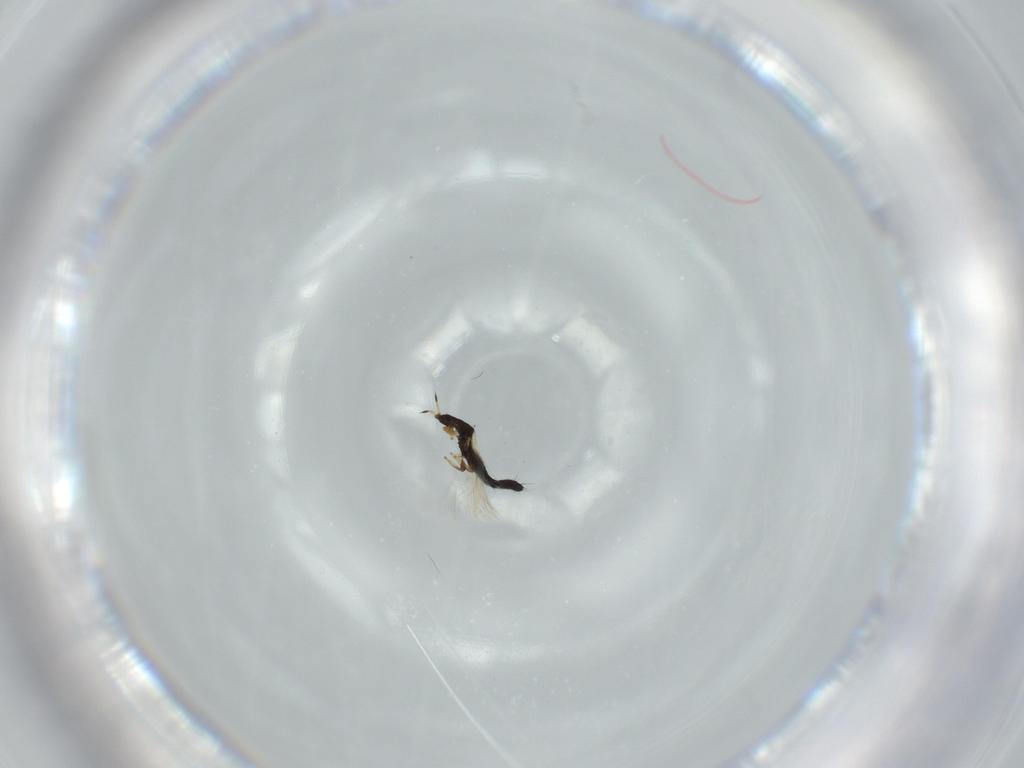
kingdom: Animalia
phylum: Arthropoda
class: Insecta
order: Thysanoptera
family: Thripidae
